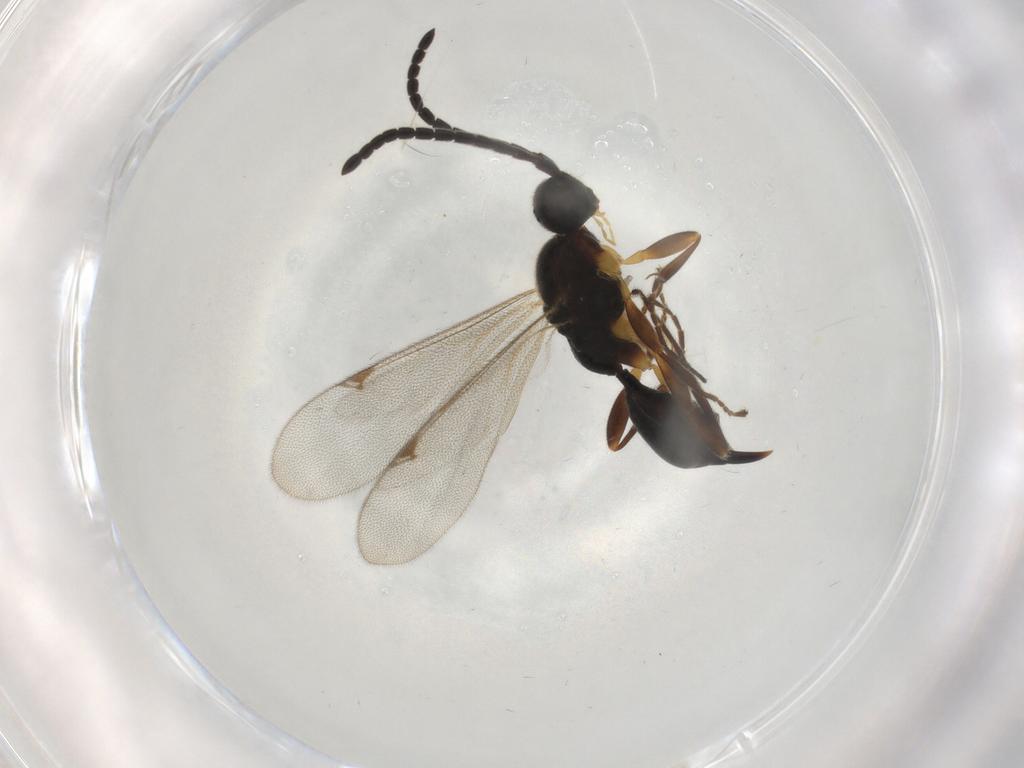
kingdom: Animalia
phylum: Arthropoda
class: Insecta
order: Hymenoptera
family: Proctotrupidae
